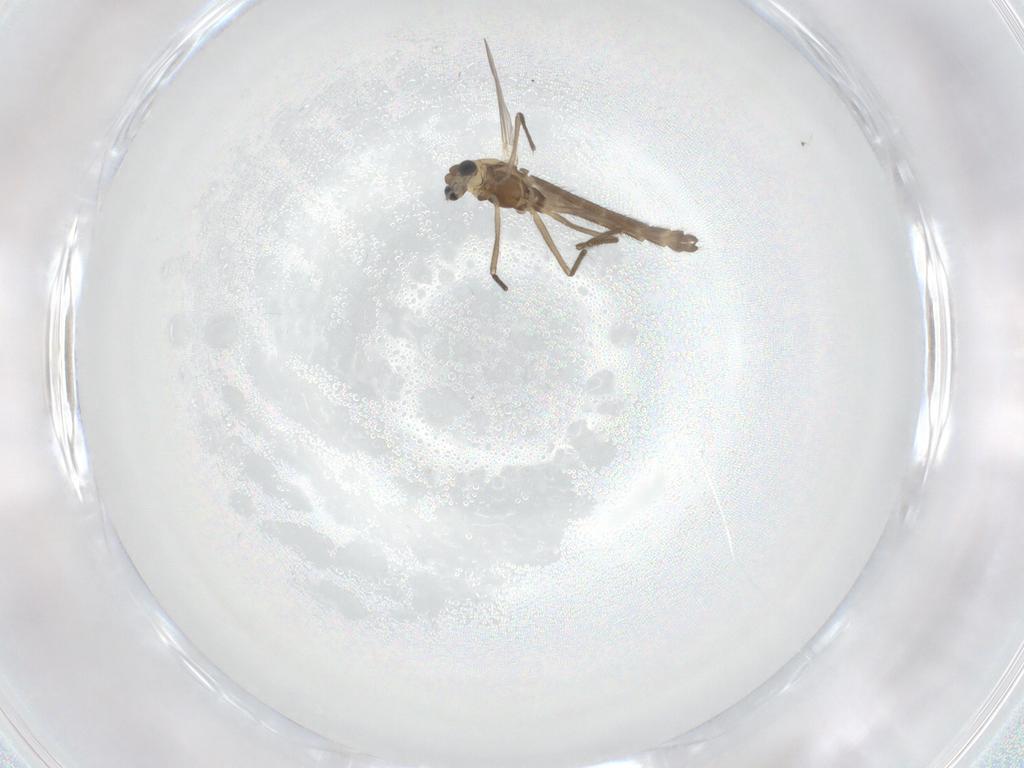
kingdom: Animalia
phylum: Arthropoda
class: Insecta
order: Diptera
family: Chironomidae
